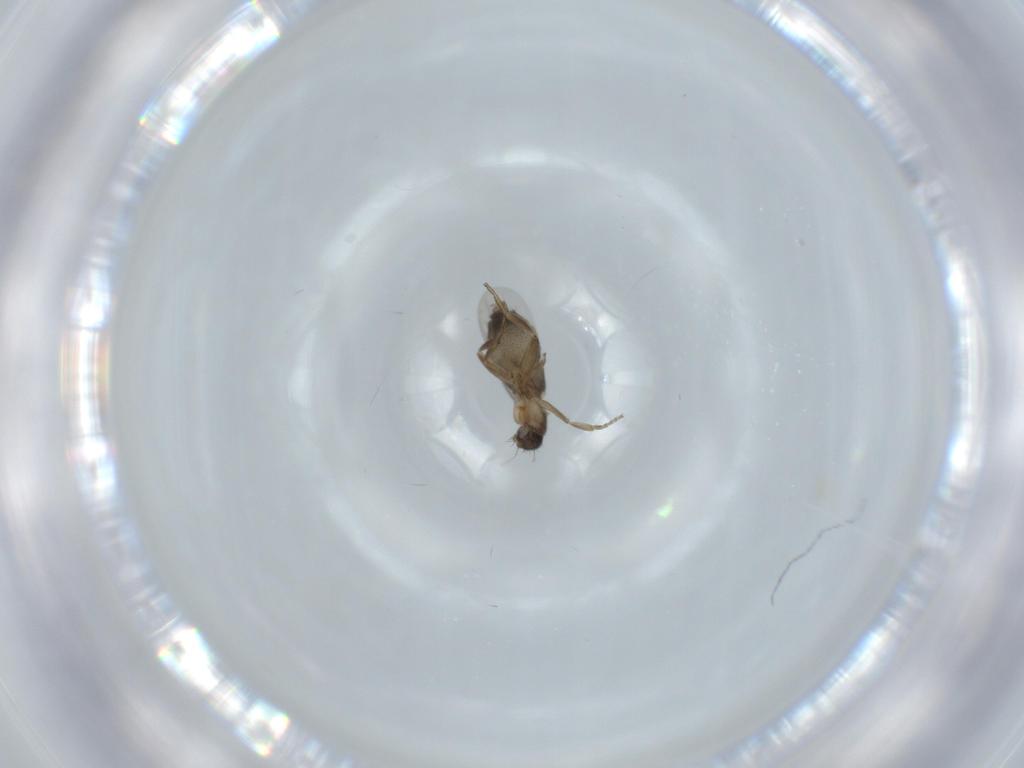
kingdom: Animalia
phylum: Arthropoda
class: Insecta
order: Diptera
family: Phoridae
